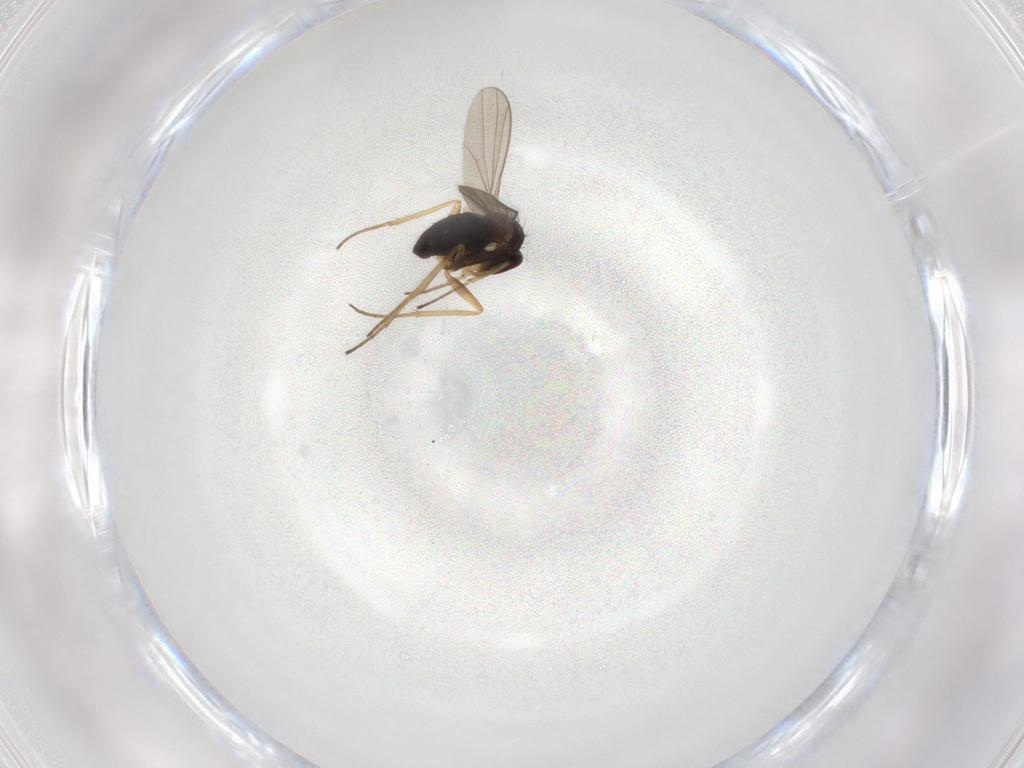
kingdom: Animalia
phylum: Arthropoda
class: Insecta
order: Diptera
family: Dolichopodidae
